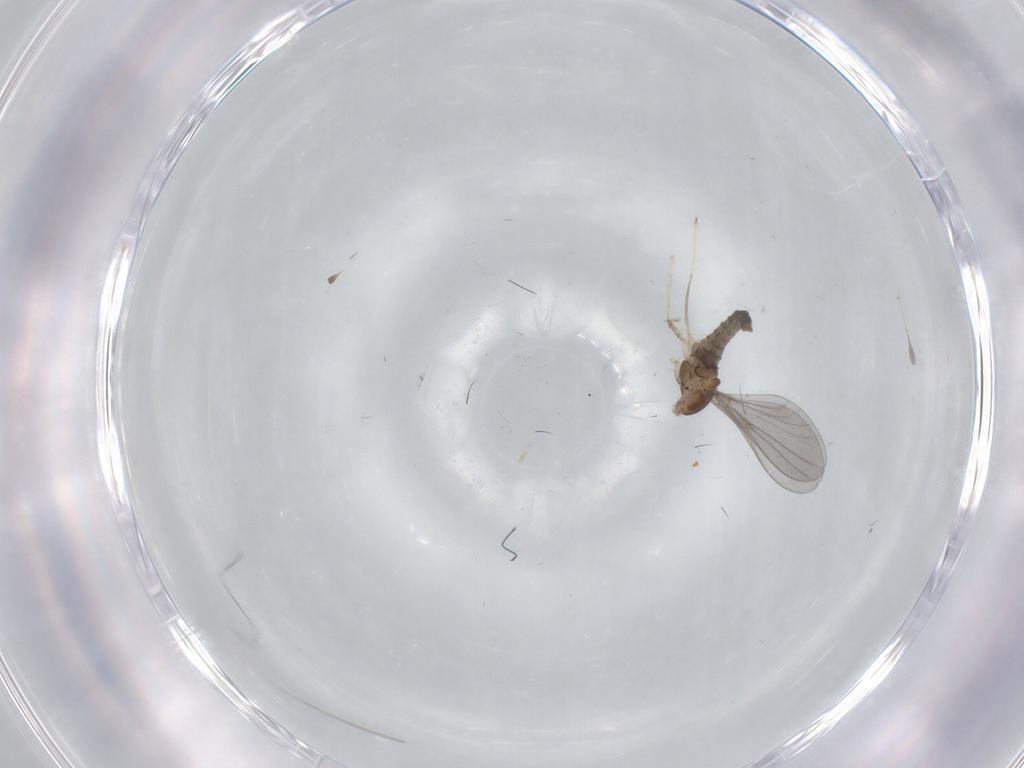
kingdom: Animalia
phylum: Arthropoda
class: Insecta
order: Diptera
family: Cecidomyiidae
